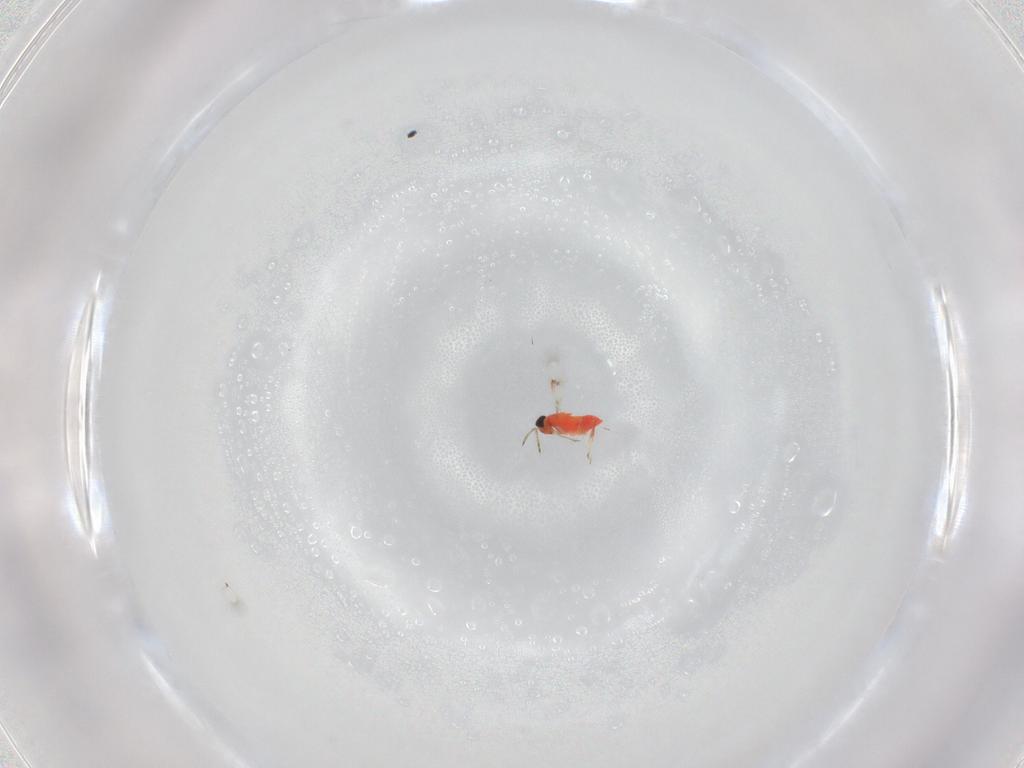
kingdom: Animalia
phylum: Arthropoda
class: Insecta
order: Hymenoptera
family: Trichogrammatidae
